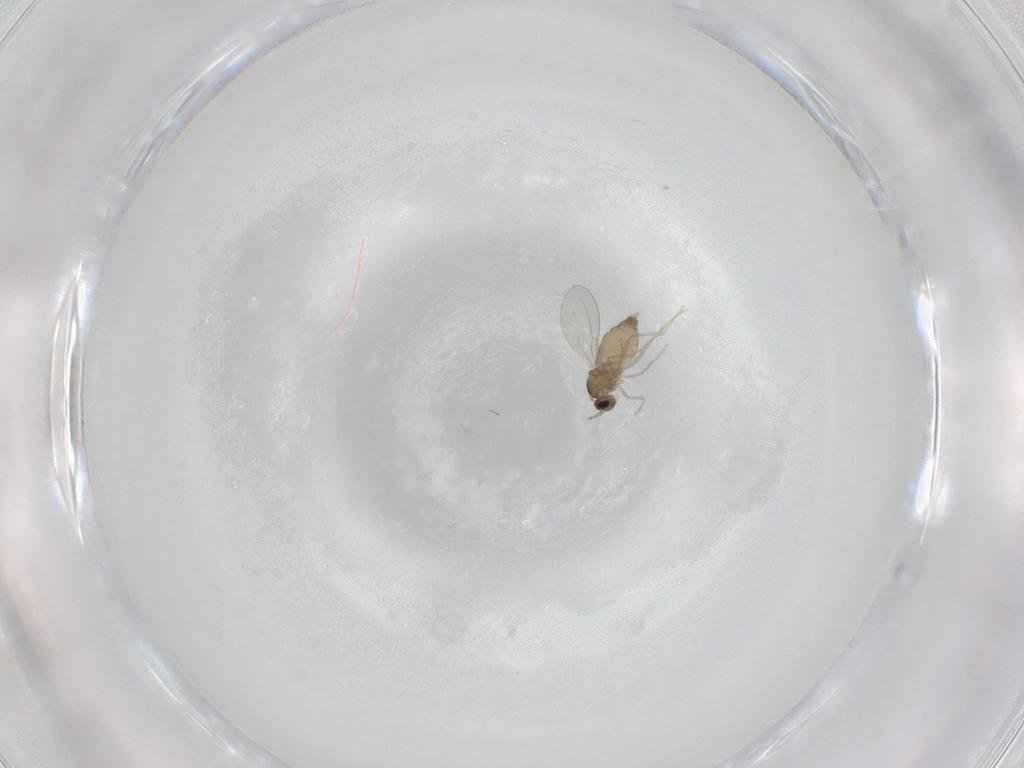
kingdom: Animalia
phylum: Arthropoda
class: Insecta
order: Diptera
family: Cecidomyiidae
